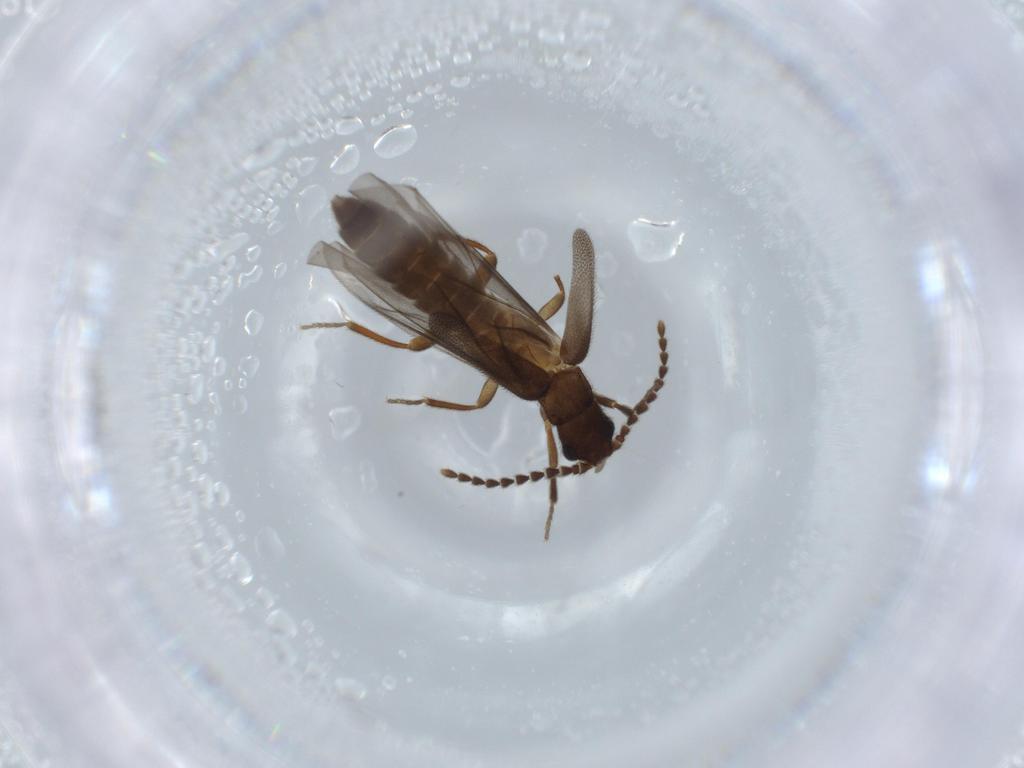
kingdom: Animalia
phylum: Arthropoda
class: Insecta
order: Coleoptera
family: Omethidae
